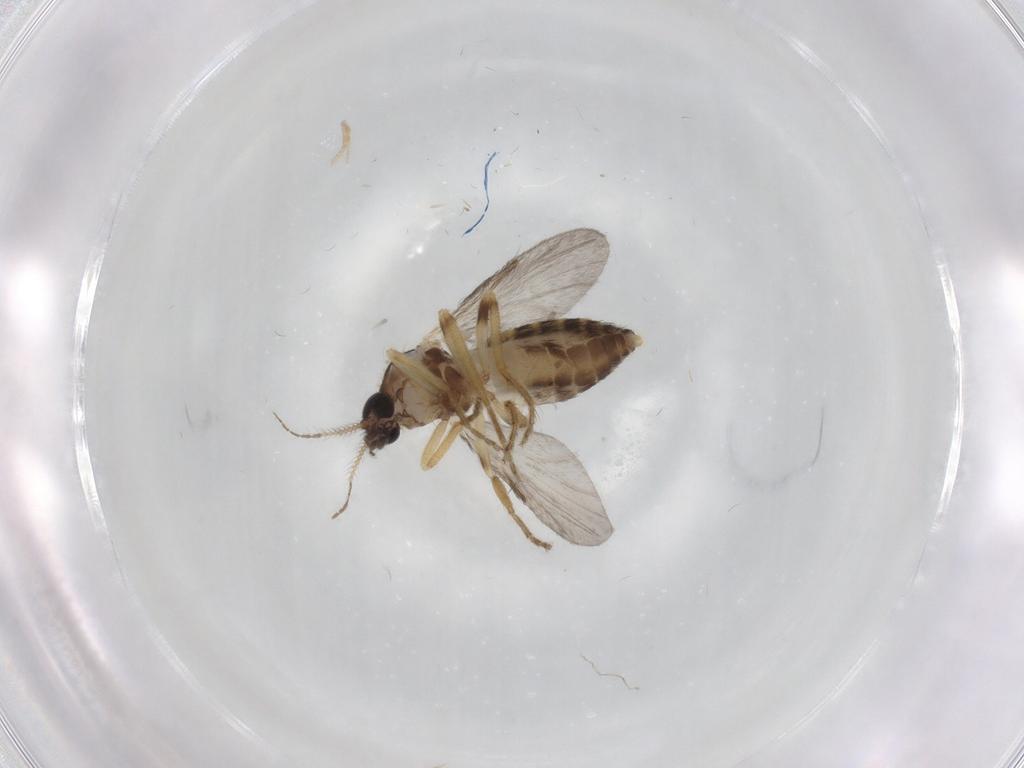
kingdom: Animalia
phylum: Arthropoda
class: Insecta
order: Diptera
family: Ceratopogonidae
